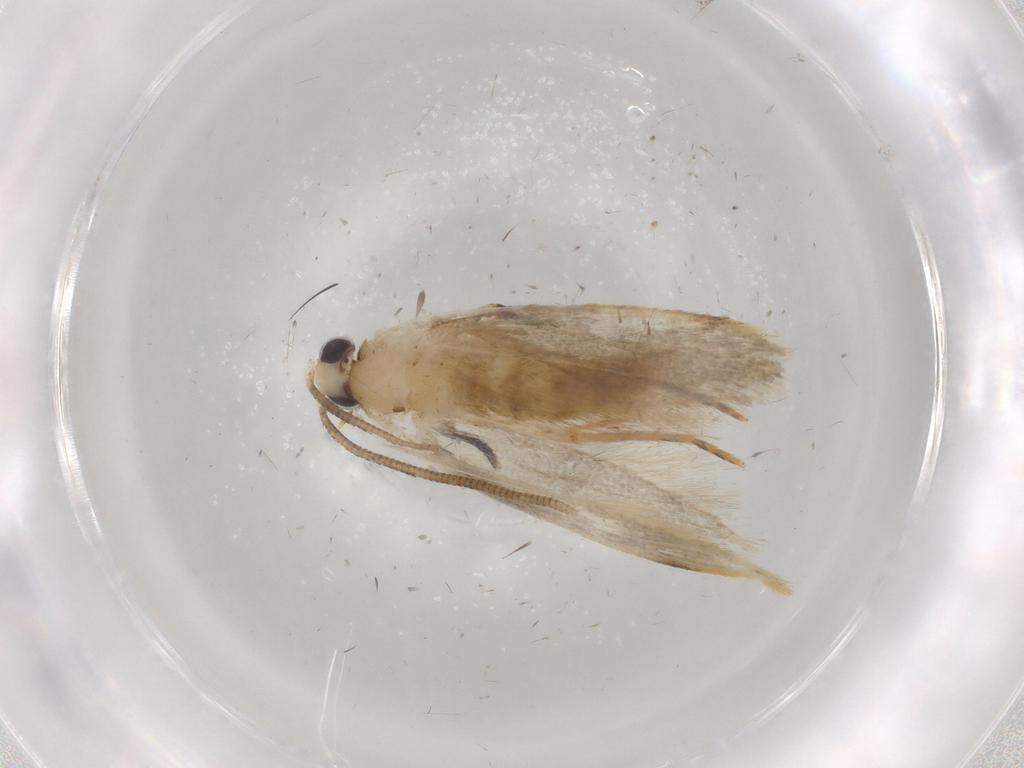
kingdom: Animalia
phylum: Arthropoda
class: Insecta
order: Lepidoptera
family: Tineidae
